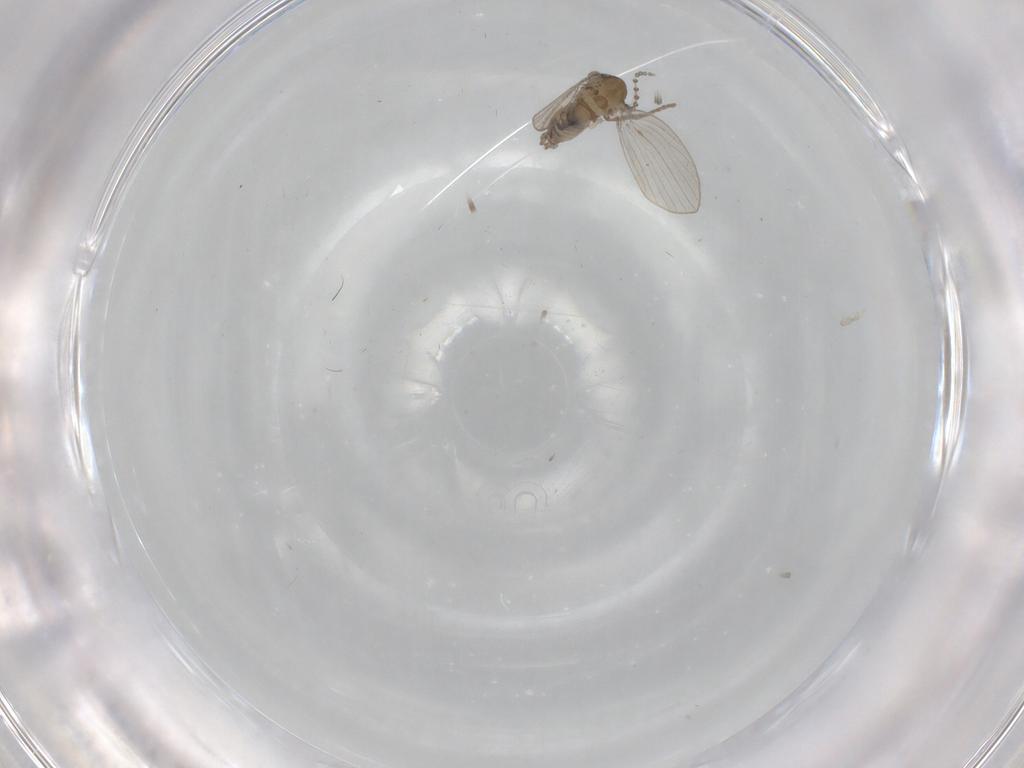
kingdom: Animalia
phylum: Arthropoda
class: Insecta
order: Diptera
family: Psychodidae
